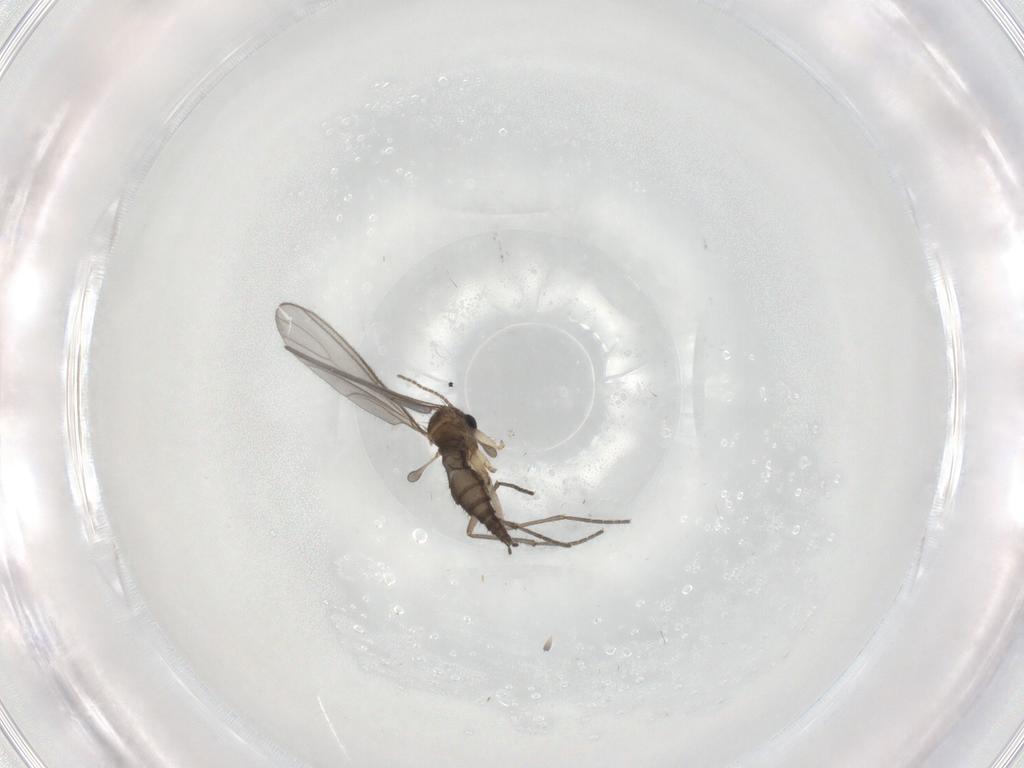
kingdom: Animalia
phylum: Arthropoda
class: Insecta
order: Diptera
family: Sciaridae
